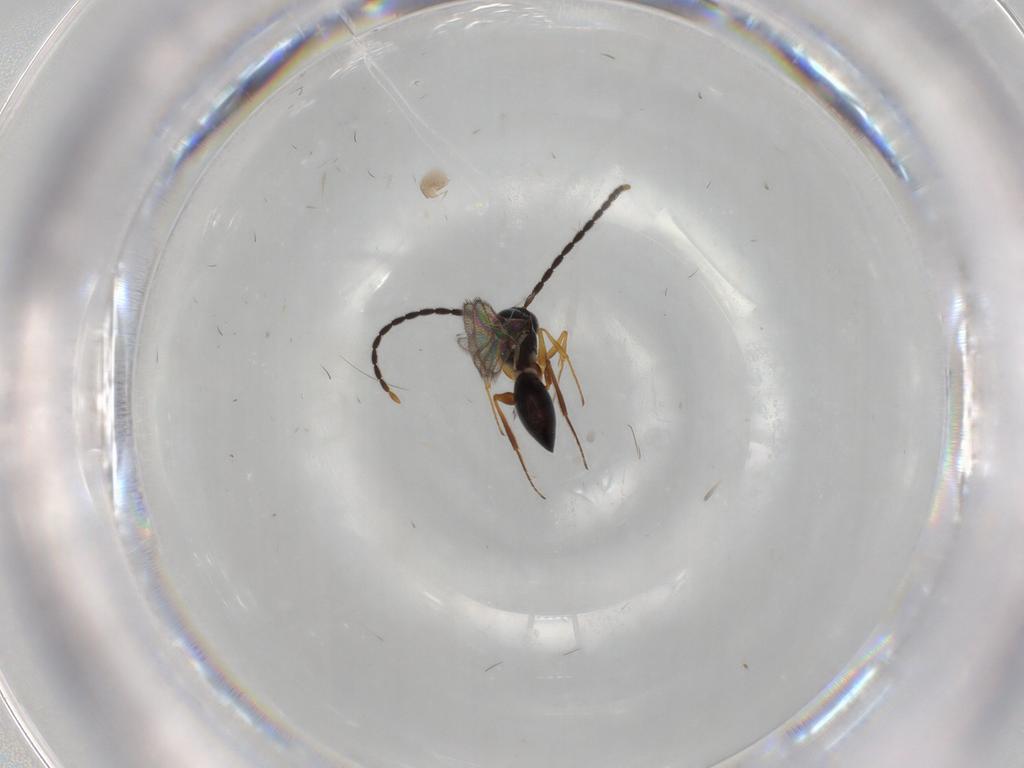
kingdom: Animalia
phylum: Arthropoda
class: Insecta
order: Hymenoptera
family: Figitidae
